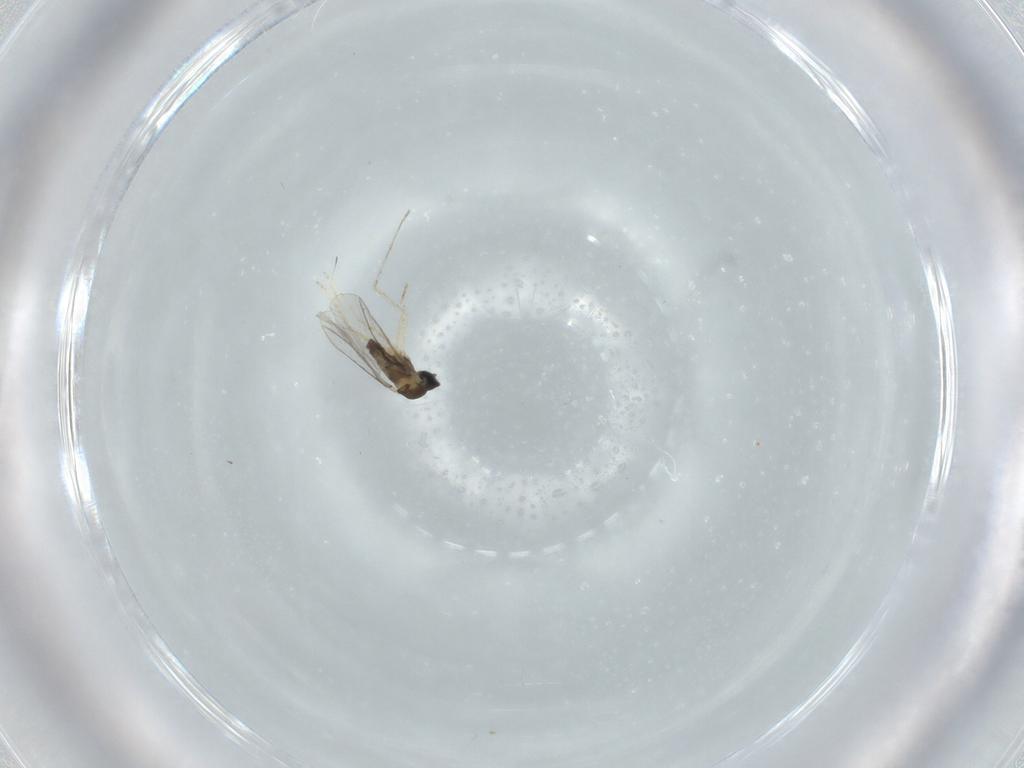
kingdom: Animalia
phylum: Arthropoda
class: Insecta
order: Diptera
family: Cecidomyiidae
